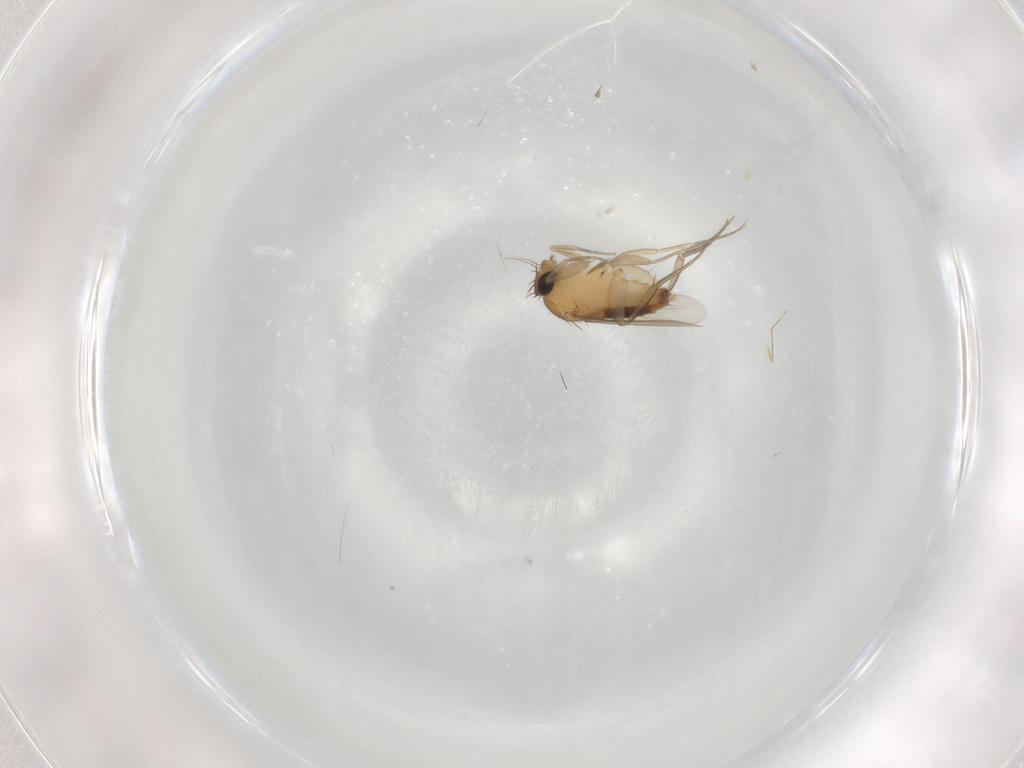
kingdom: Animalia
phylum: Arthropoda
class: Insecta
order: Diptera
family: Phoridae
